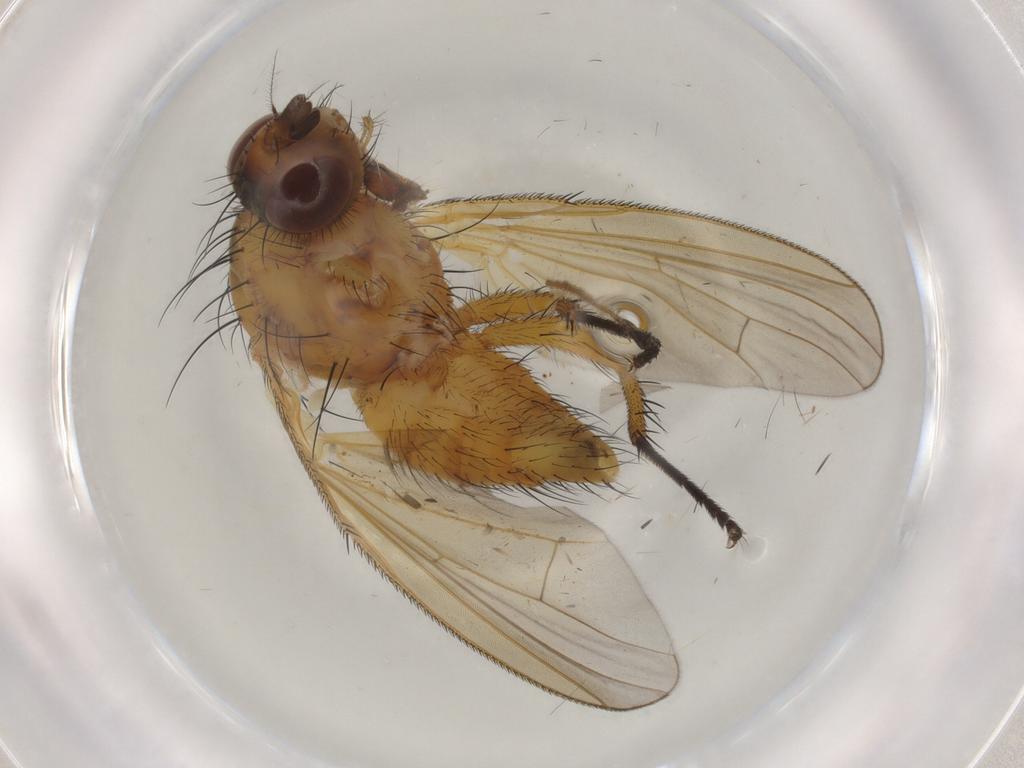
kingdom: Animalia
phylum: Arthropoda
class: Insecta
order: Diptera
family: Anthomyiidae
